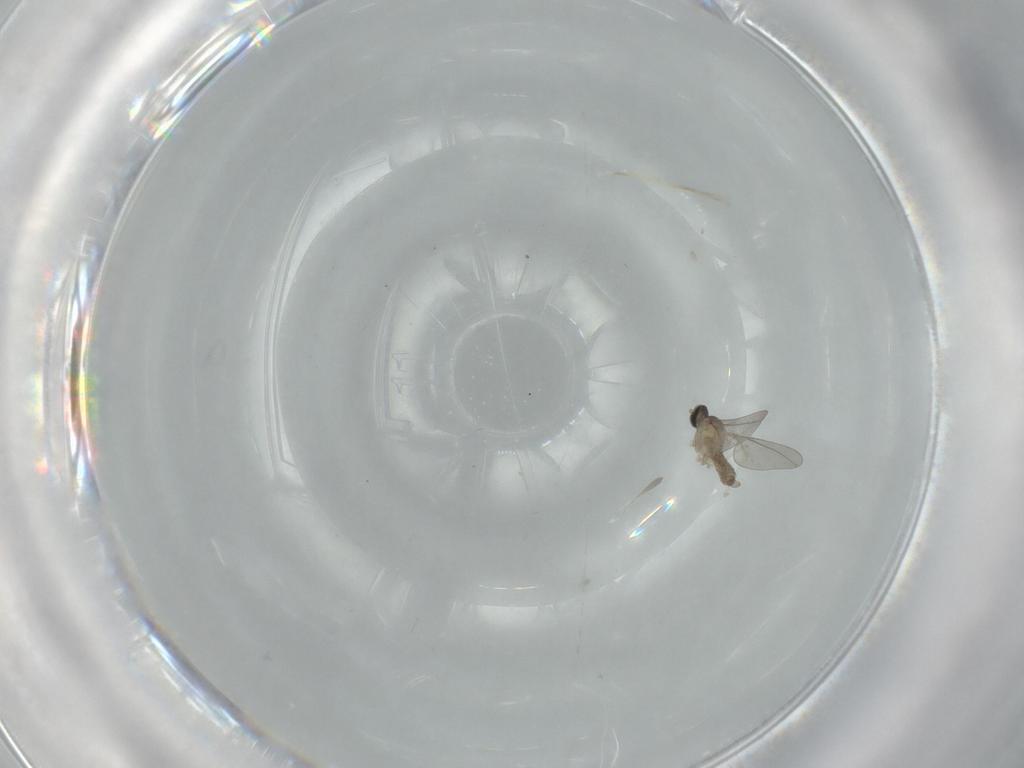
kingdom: Animalia
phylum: Arthropoda
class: Insecta
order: Diptera
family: Cecidomyiidae
